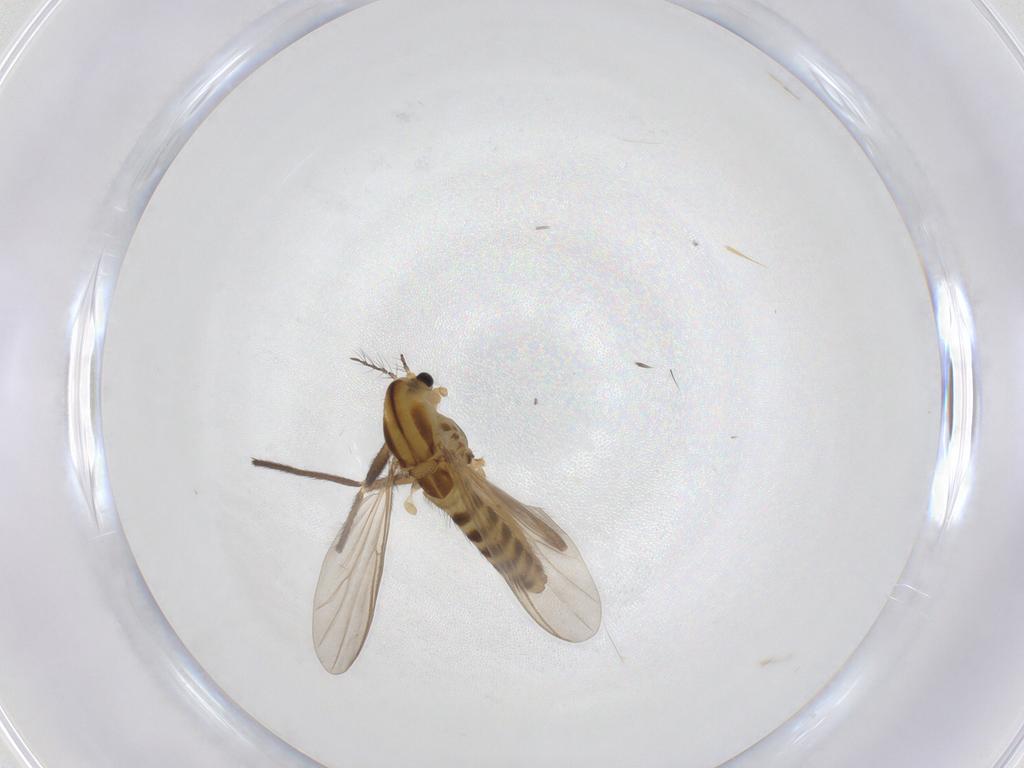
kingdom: Animalia
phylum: Arthropoda
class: Insecta
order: Diptera
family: Chironomidae
